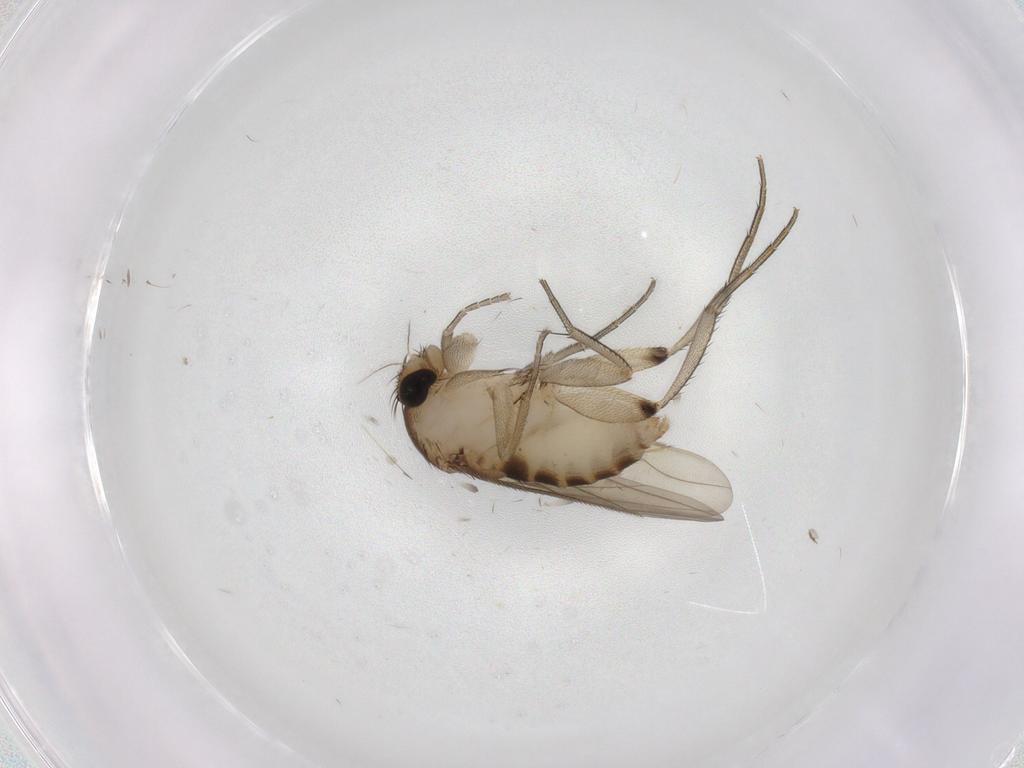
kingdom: Animalia
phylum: Arthropoda
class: Insecta
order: Diptera
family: Phoridae
